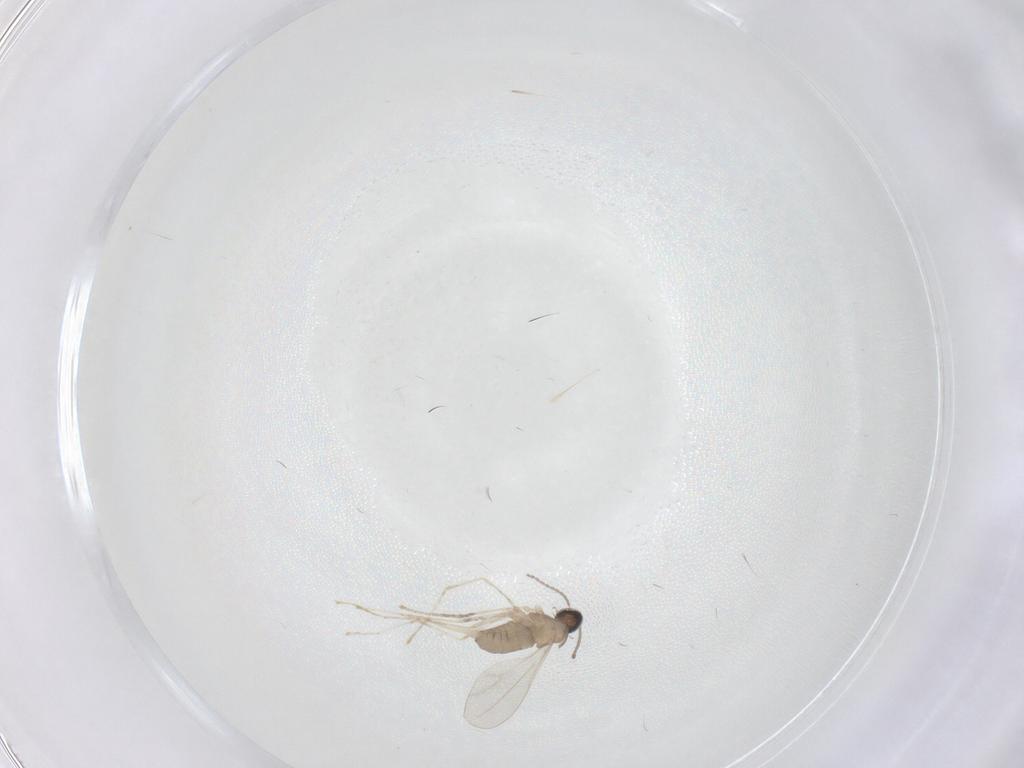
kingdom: Animalia
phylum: Arthropoda
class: Insecta
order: Diptera
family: Cecidomyiidae
